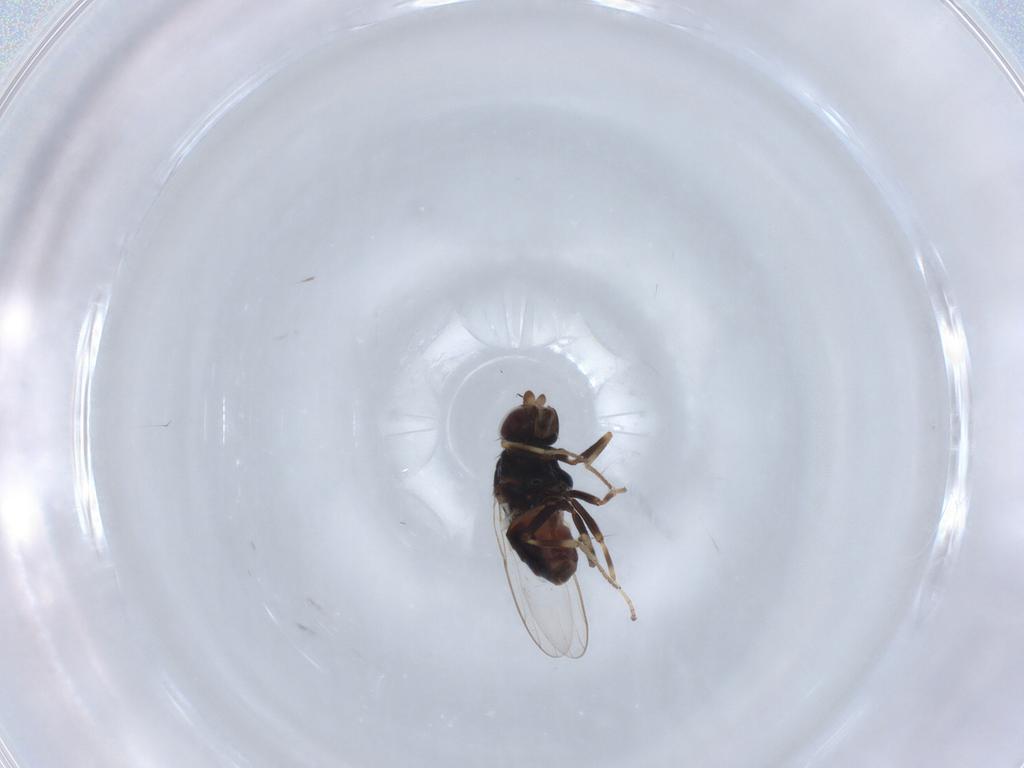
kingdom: Animalia
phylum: Arthropoda
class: Insecta
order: Diptera
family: Chloropidae
